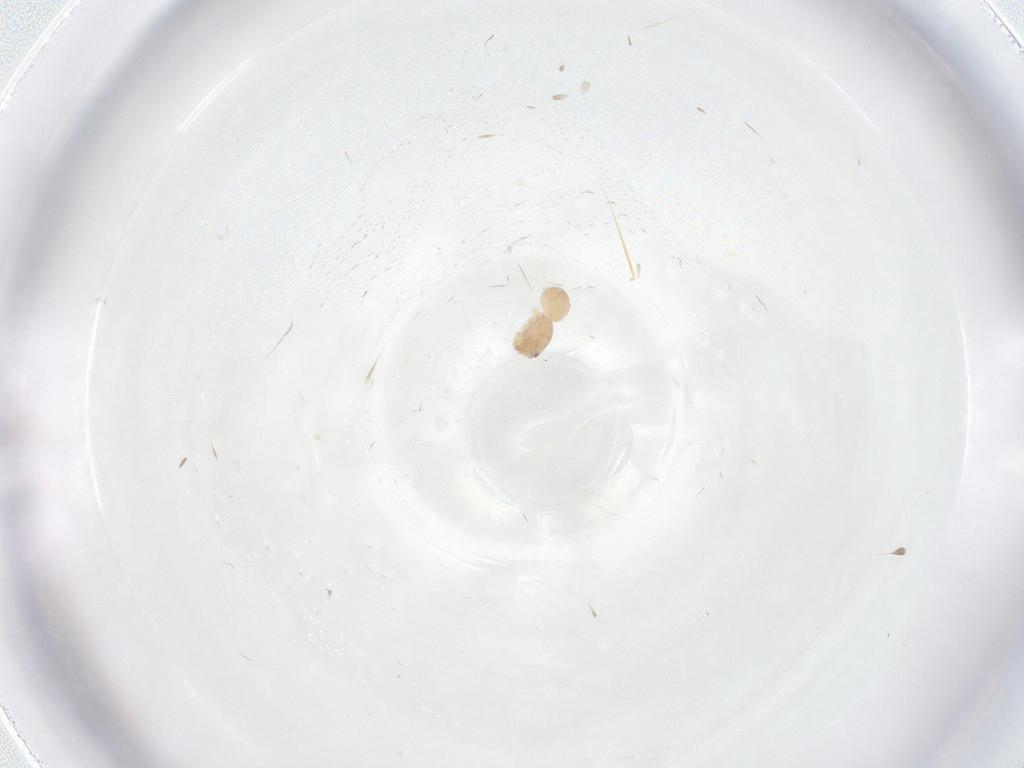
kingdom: Animalia
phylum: Arthropoda
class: Arachnida
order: Araneae
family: Idiopidae
